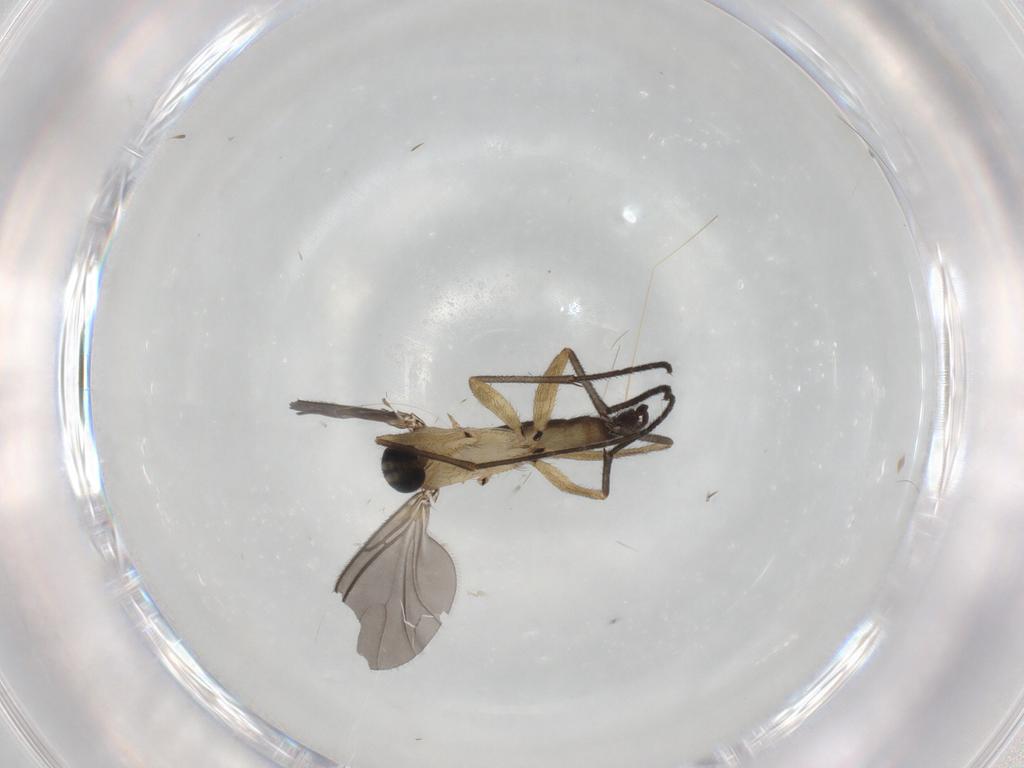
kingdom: Animalia
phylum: Arthropoda
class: Insecta
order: Diptera
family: Sciaridae
